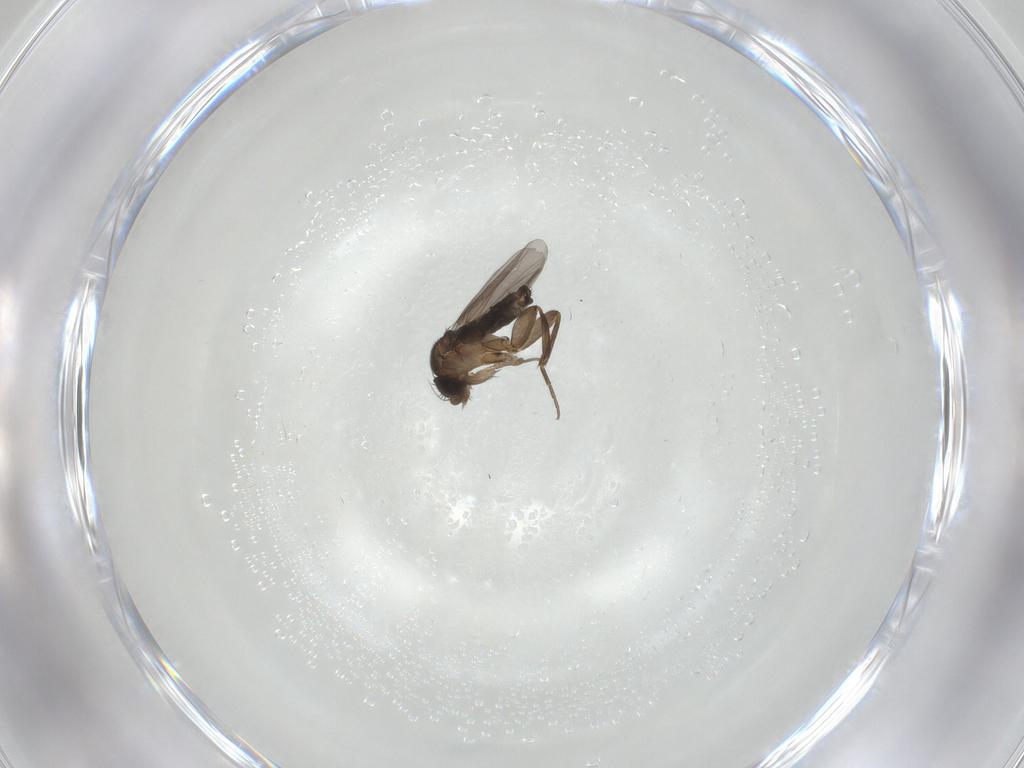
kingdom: Animalia
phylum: Arthropoda
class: Insecta
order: Diptera
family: Phoridae
